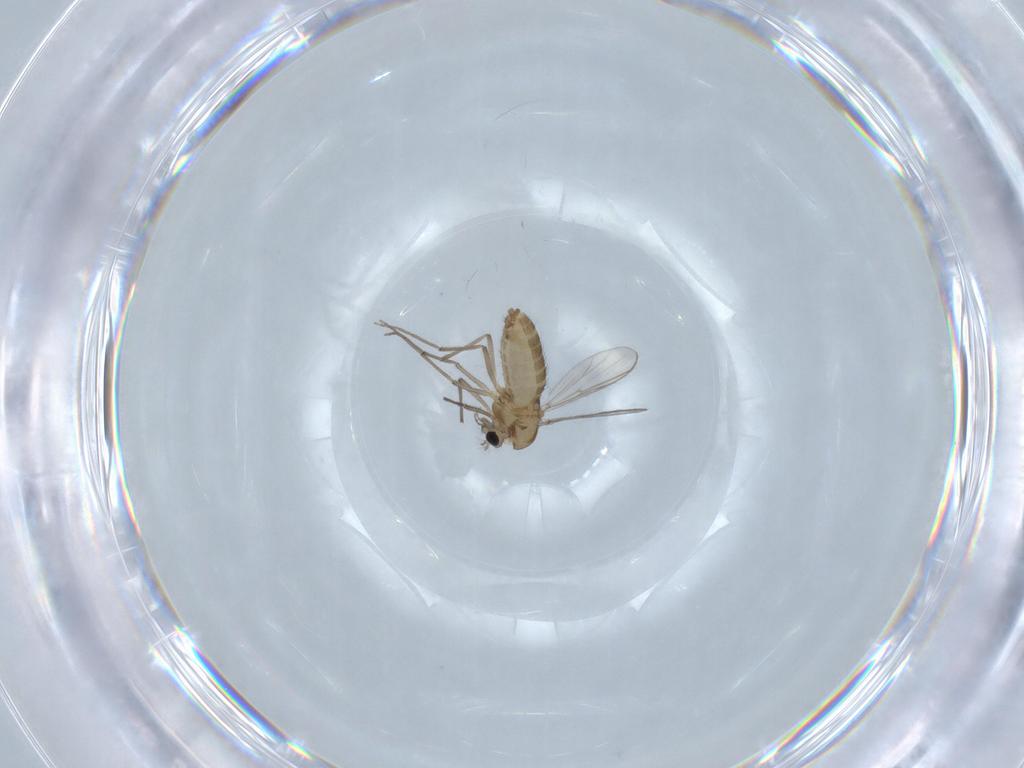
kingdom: Animalia
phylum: Arthropoda
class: Insecta
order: Diptera
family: Chironomidae
